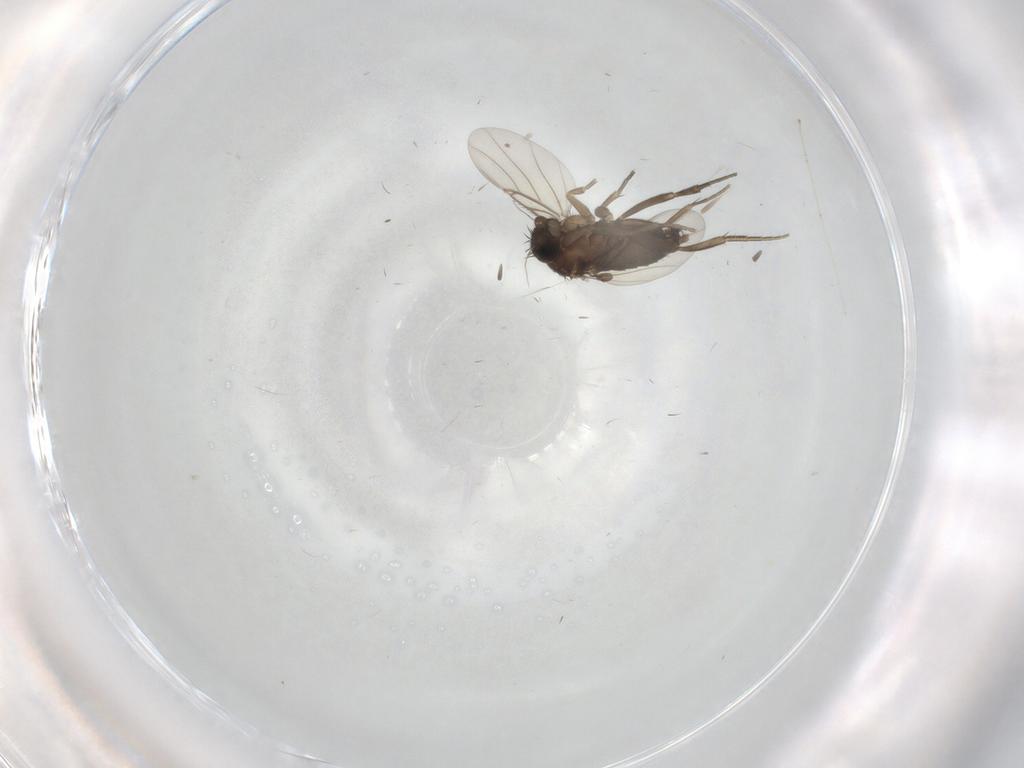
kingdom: Animalia
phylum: Arthropoda
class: Insecta
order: Diptera
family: Phoridae
